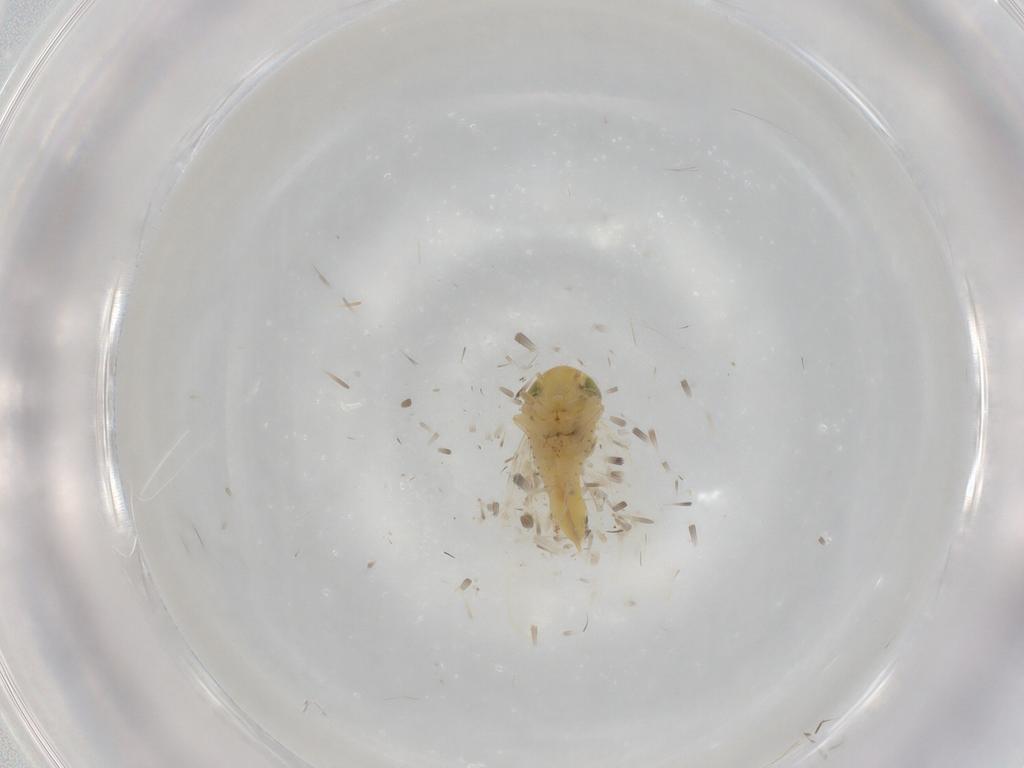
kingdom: Animalia
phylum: Arthropoda
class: Insecta
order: Hemiptera
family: Cicadellidae
